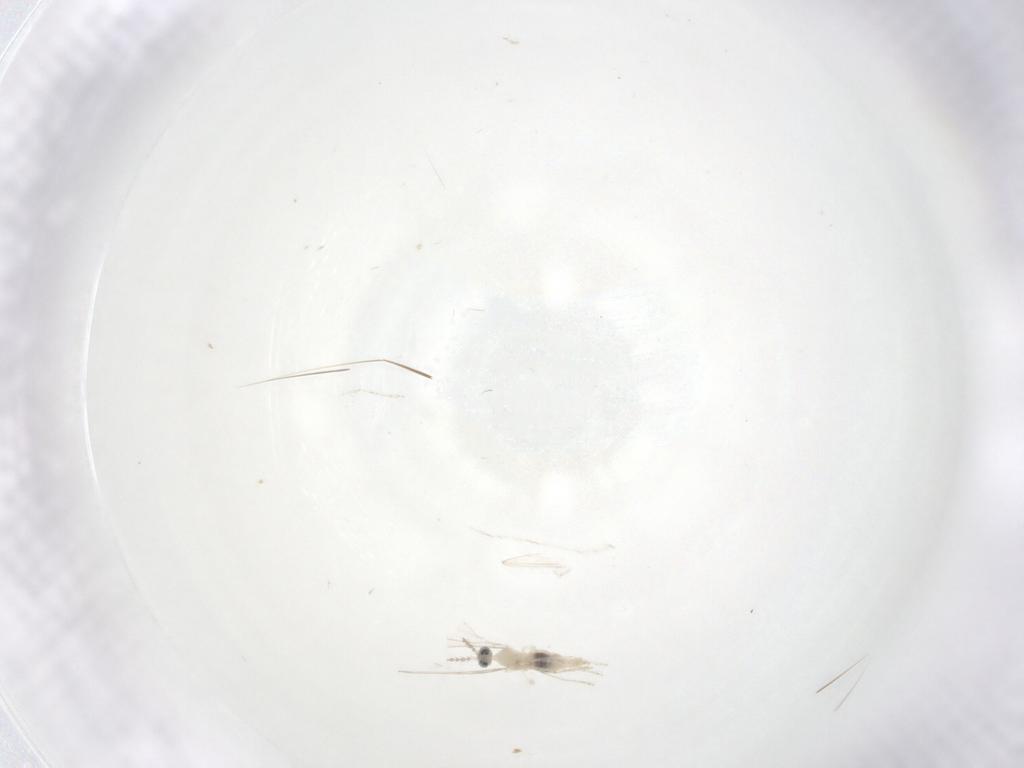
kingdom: Animalia
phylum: Arthropoda
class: Insecta
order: Diptera
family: Cecidomyiidae
